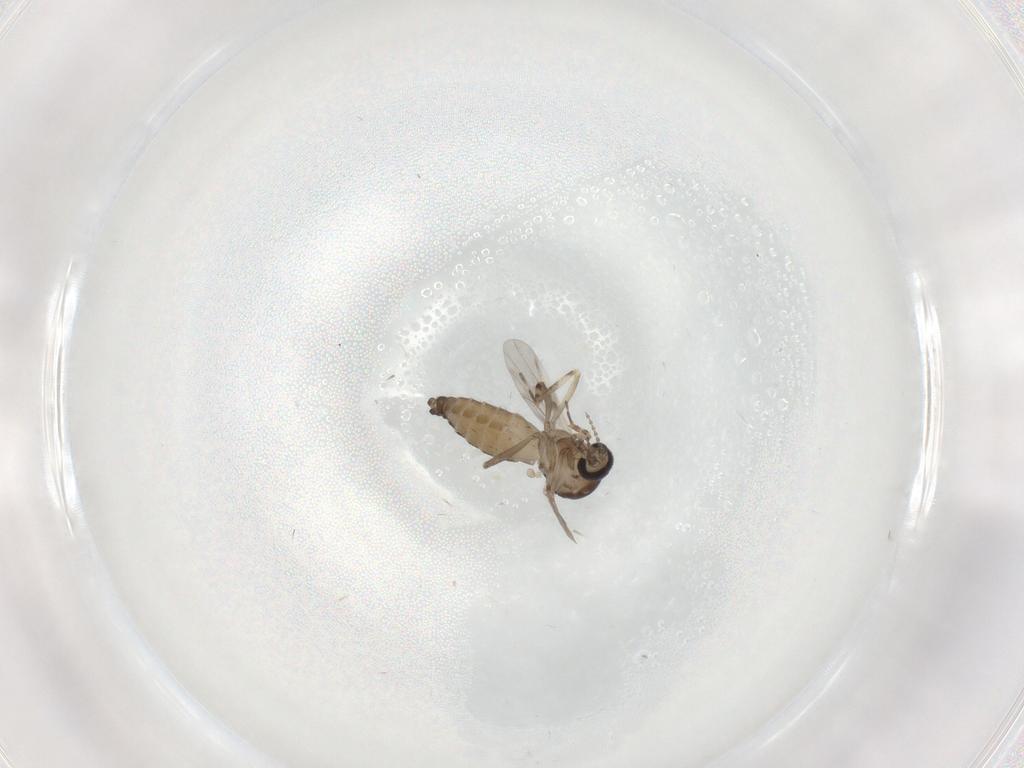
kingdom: Animalia
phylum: Arthropoda
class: Insecta
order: Diptera
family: Ceratopogonidae
